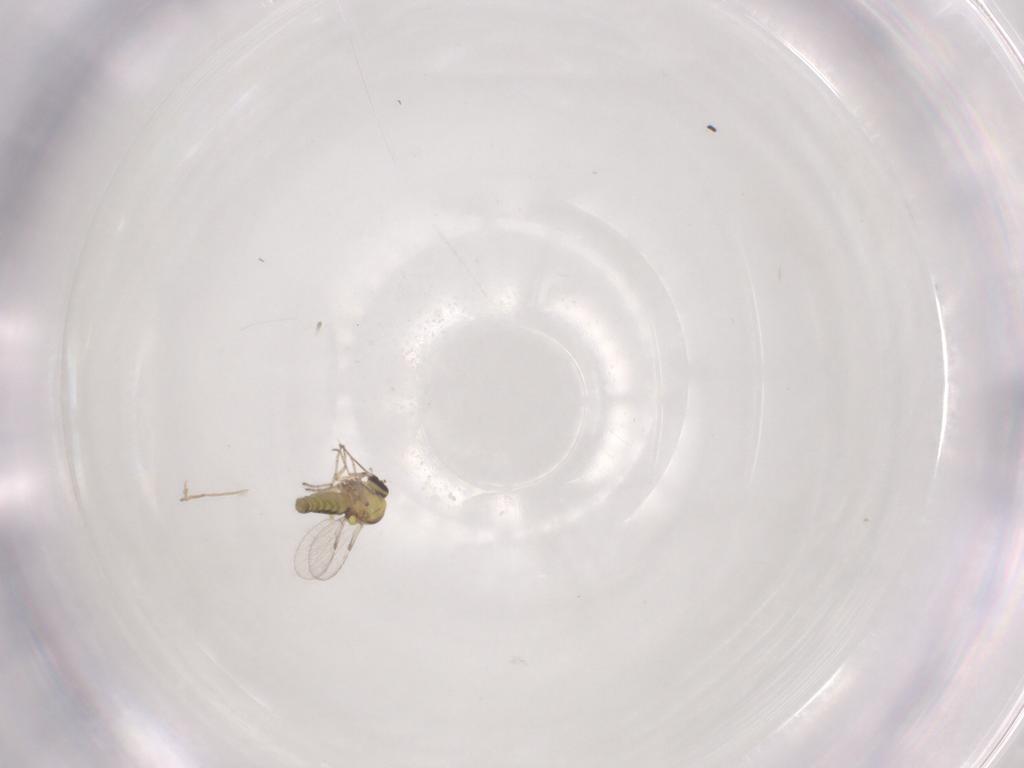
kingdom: Animalia
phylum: Arthropoda
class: Insecta
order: Diptera
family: Ceratopogonidae
